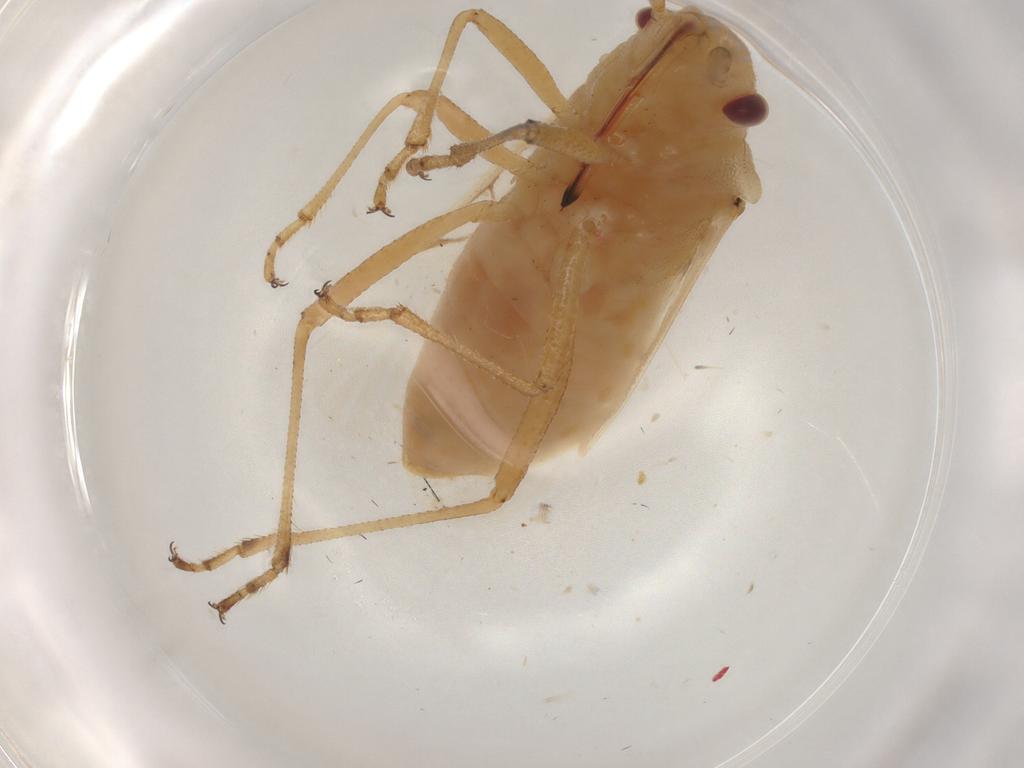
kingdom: Animalia
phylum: Arthropoda
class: Insecta
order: Hemiptera
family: Rhopalidae
